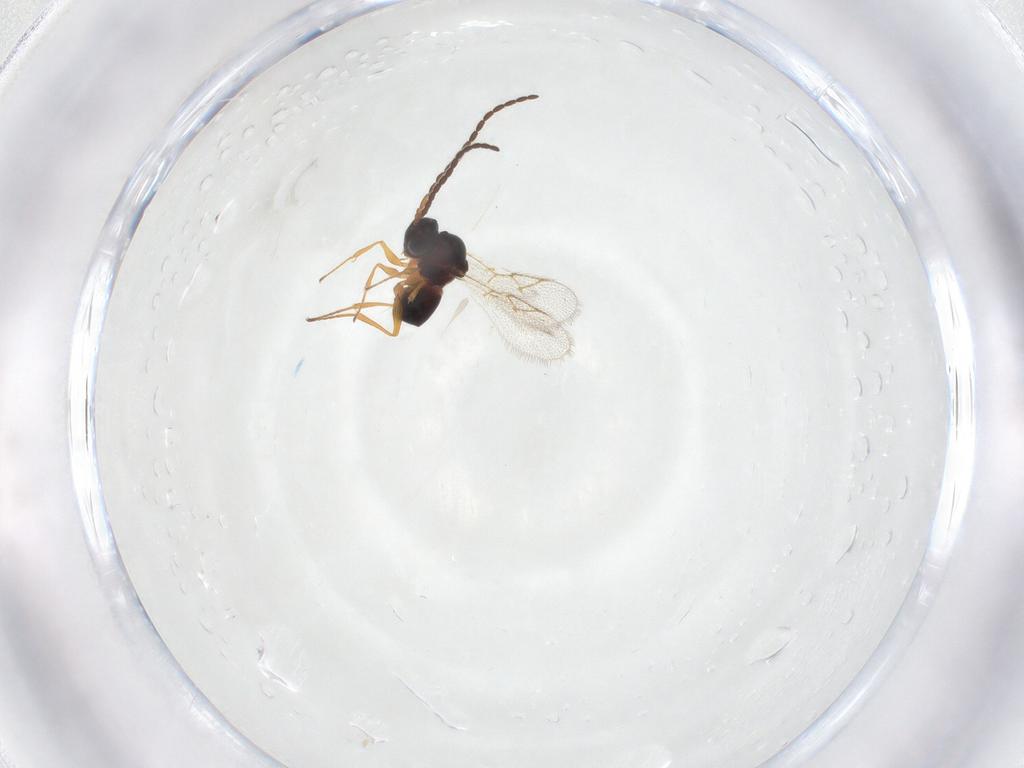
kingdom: Animalia
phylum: Arthropoda
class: Insecta
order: Hymenoptera
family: Figitidae
